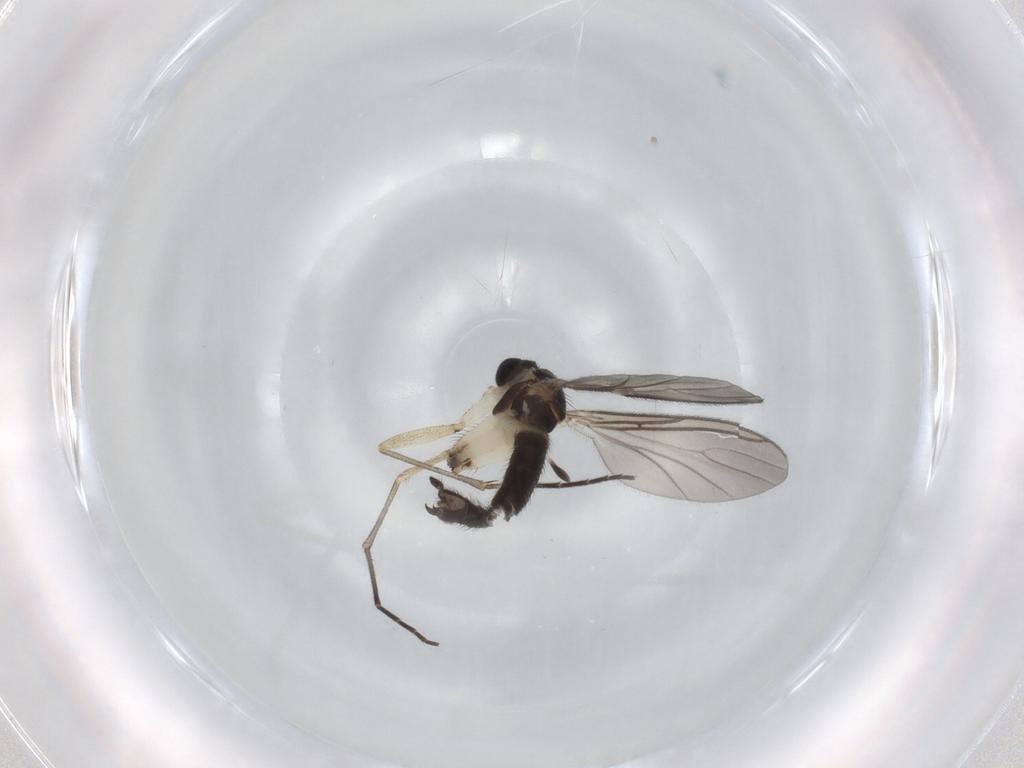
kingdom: Animalia
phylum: Arthropoda
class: Insecta
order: Diptera
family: Sciaridae
